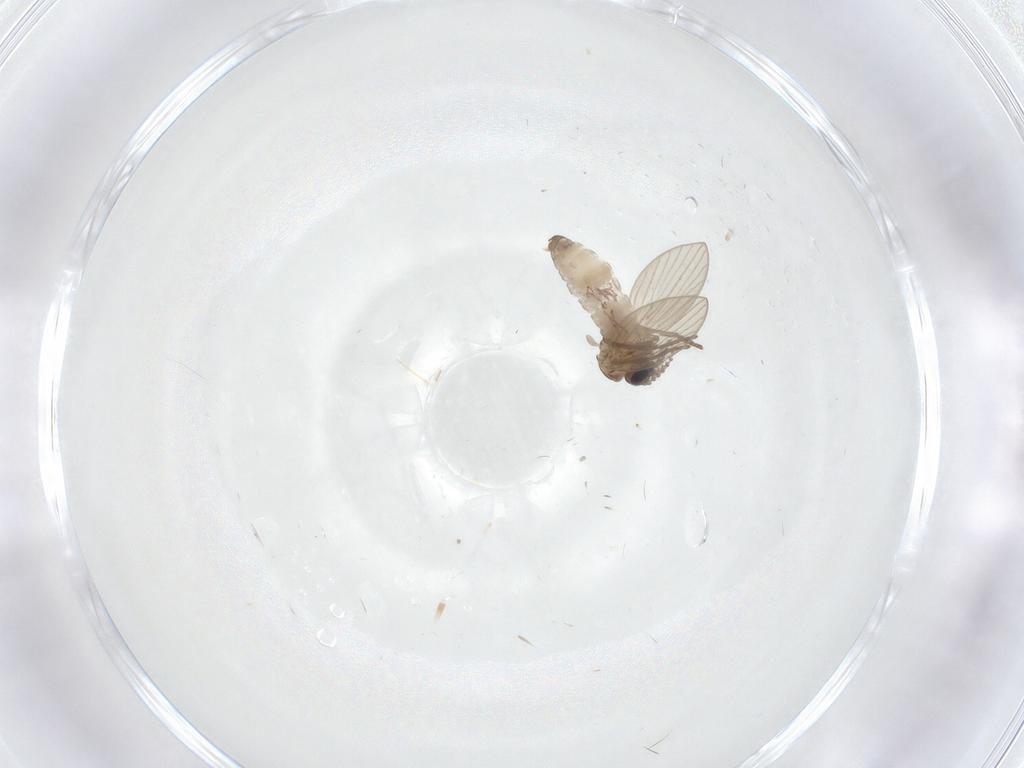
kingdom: Animalia
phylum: Arthropoda
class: Insecta
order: Diptera
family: Psychodidae
